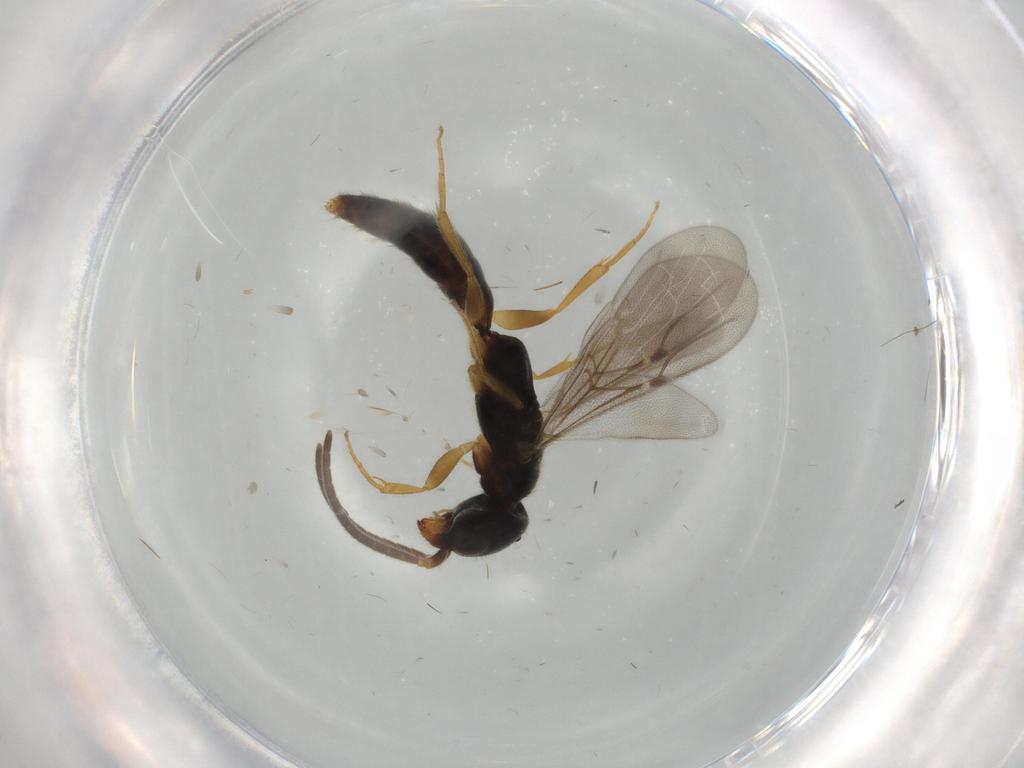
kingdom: Animalia
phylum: Arthropoda
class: Insecta
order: Hymenoptera
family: Bethylidae
